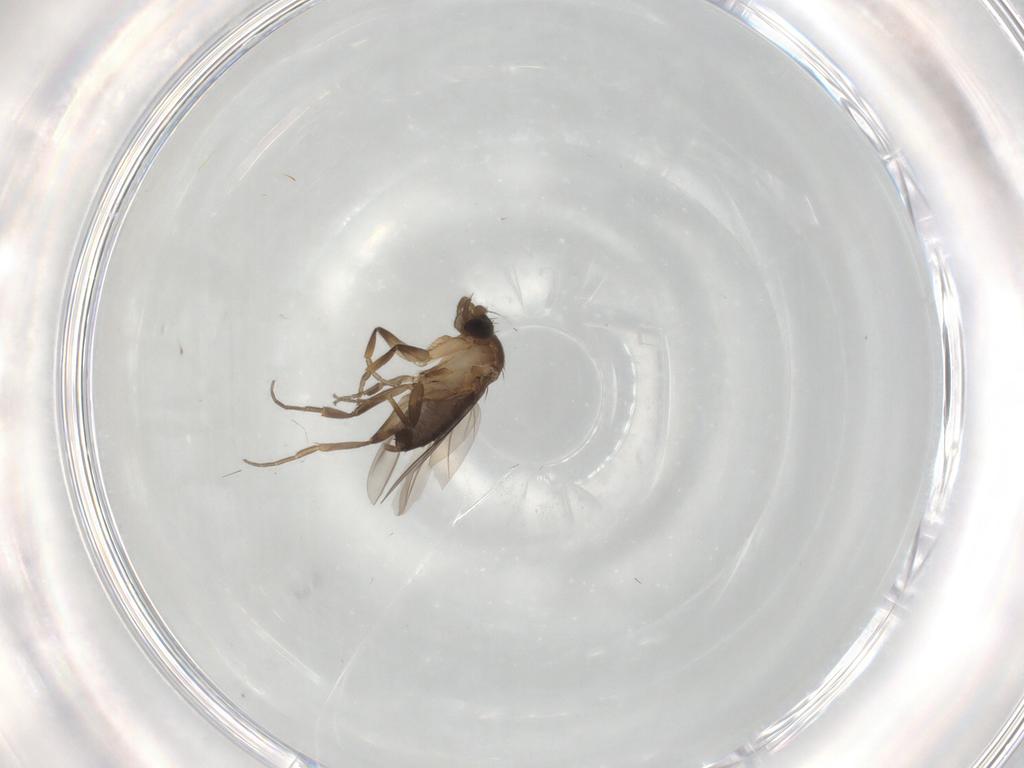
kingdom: Animalia
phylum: Arthropoda
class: Insecta
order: Diptera
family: Phoridae
